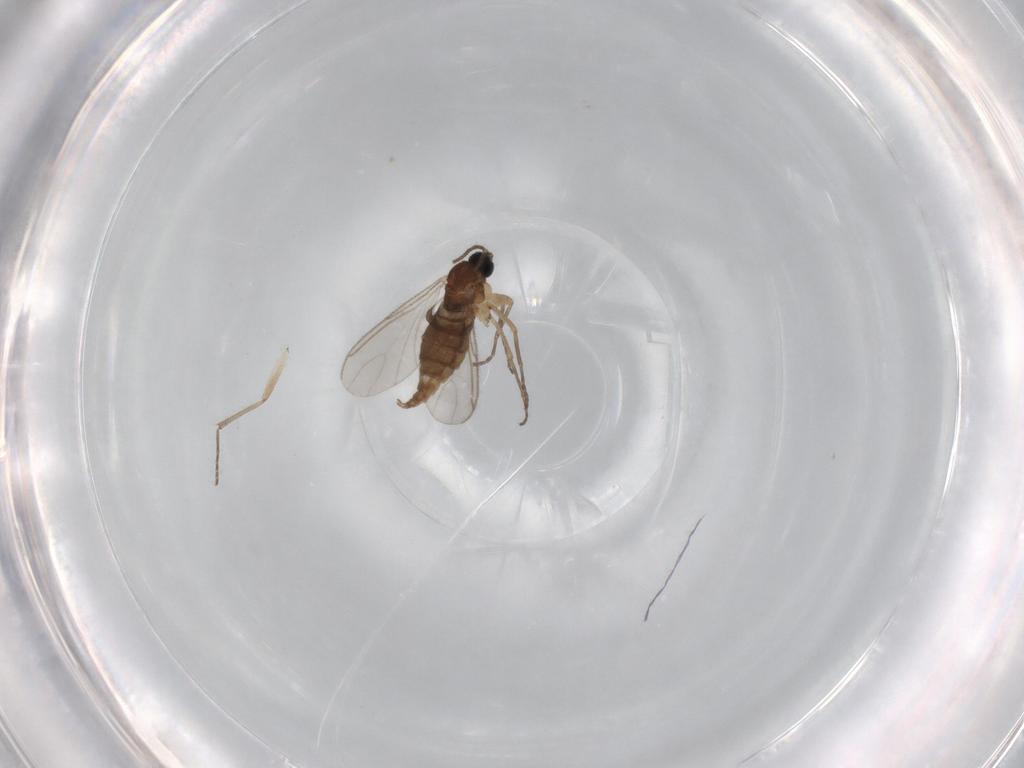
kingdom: Animalia
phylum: Arthropoda
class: Insecta
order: Diptera
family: Sciaridae
